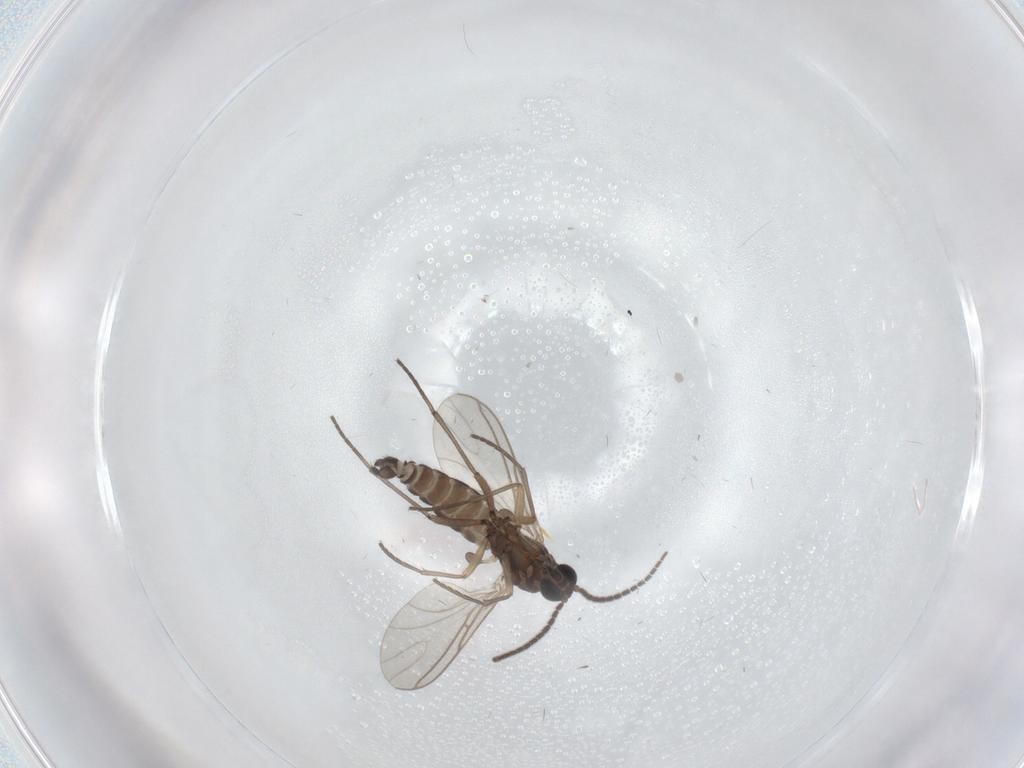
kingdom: Animalia
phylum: Arthropoda
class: Insecta
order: Diptera
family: Sciaridae
